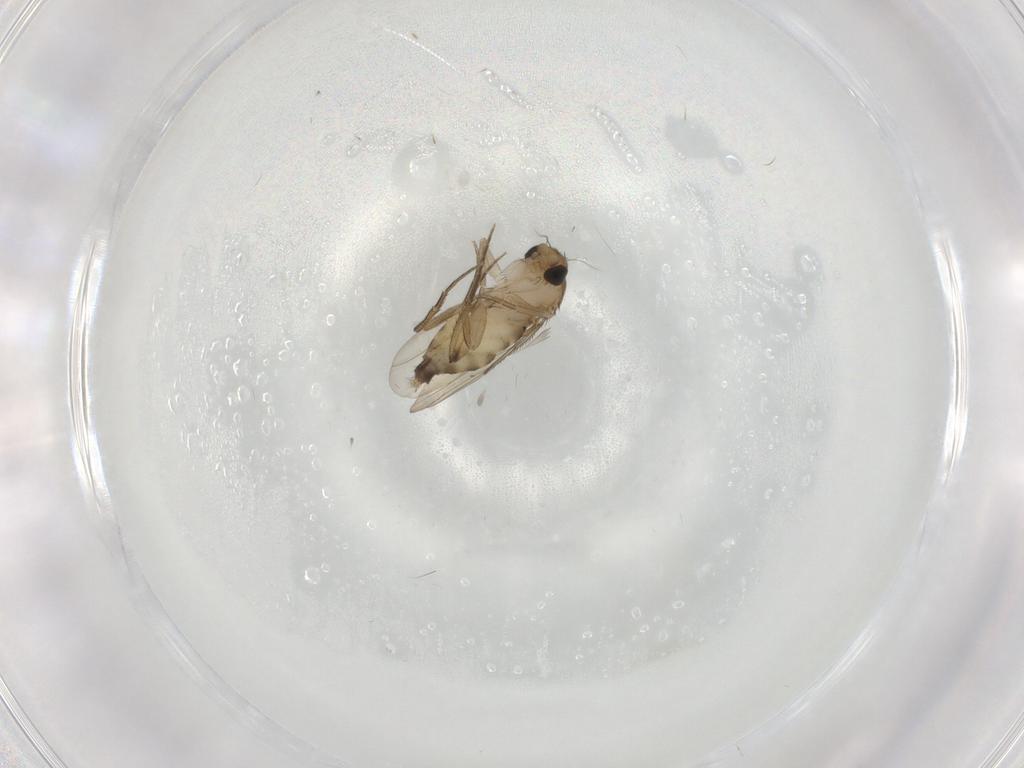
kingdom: Animalia
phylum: Arthropoda
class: Insecta
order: Diptera
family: Phoridae
